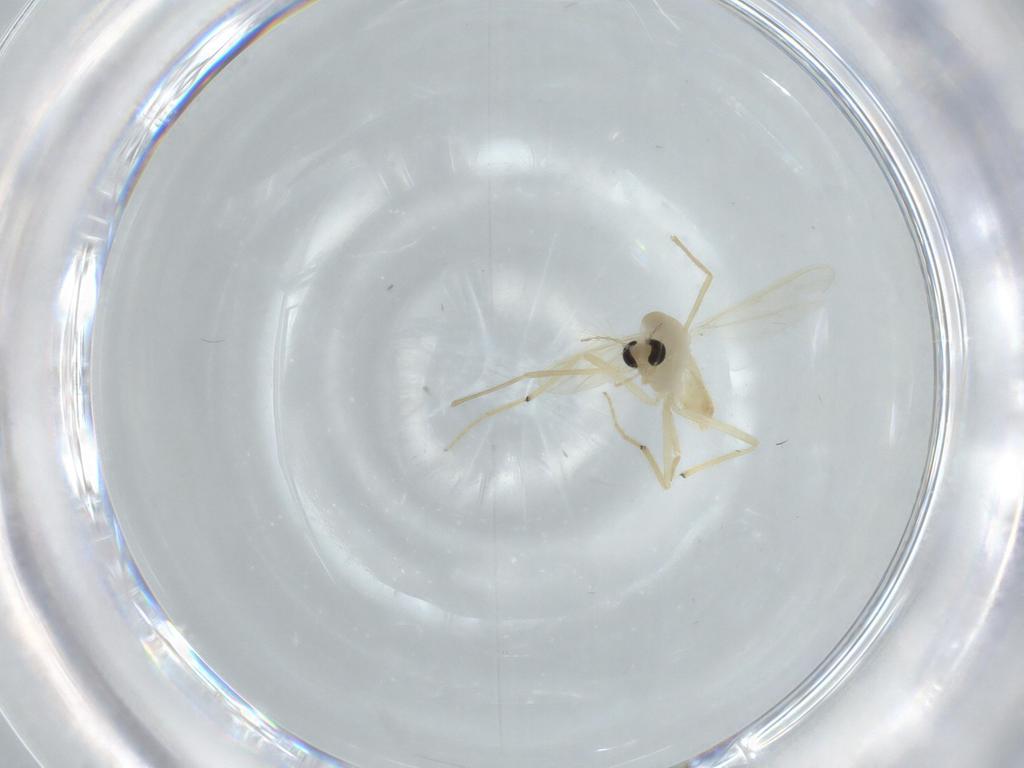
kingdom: Animalia
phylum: Arthropoda
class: Insecta
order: Diptera
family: Chironomidae
